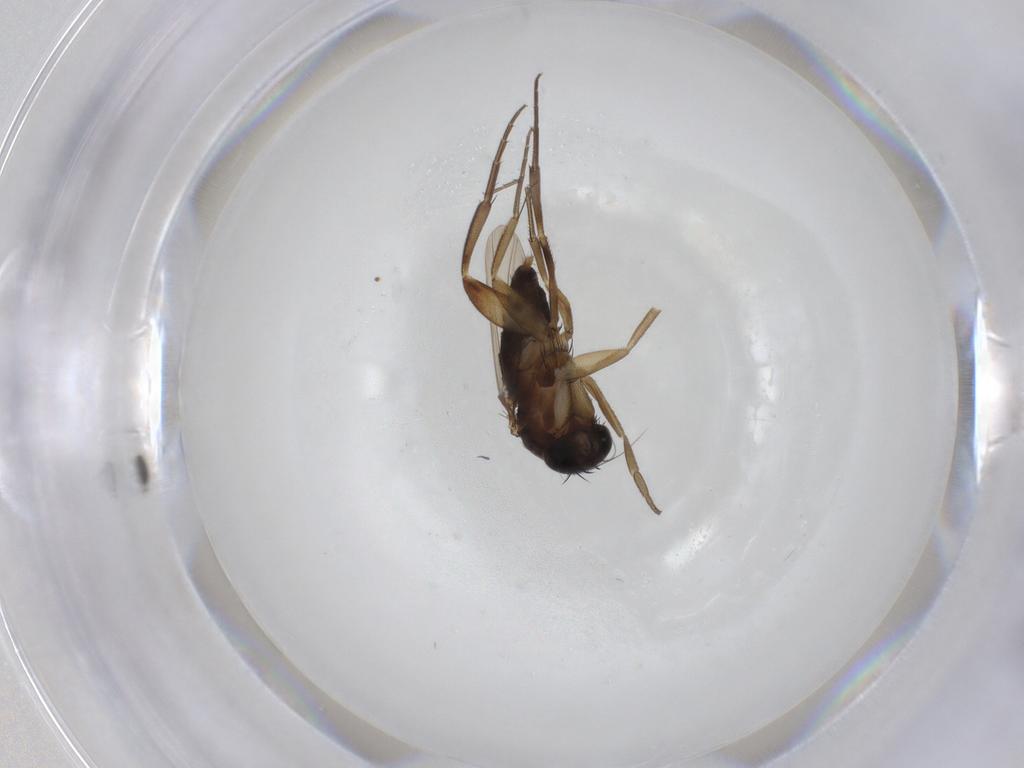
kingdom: Animalia
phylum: Arthropoda
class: Insecta
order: Diptera
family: Phoridae
